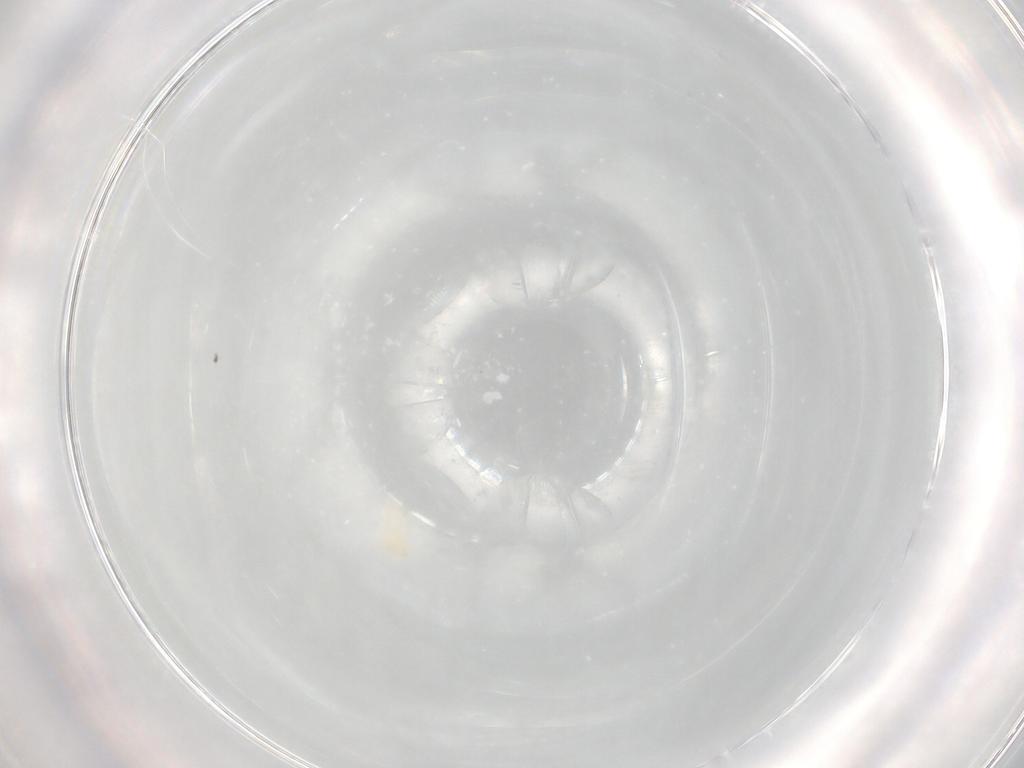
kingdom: Animalia
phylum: Arthropoda
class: Arachnida
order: Trombidiformes
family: Eupodidae
